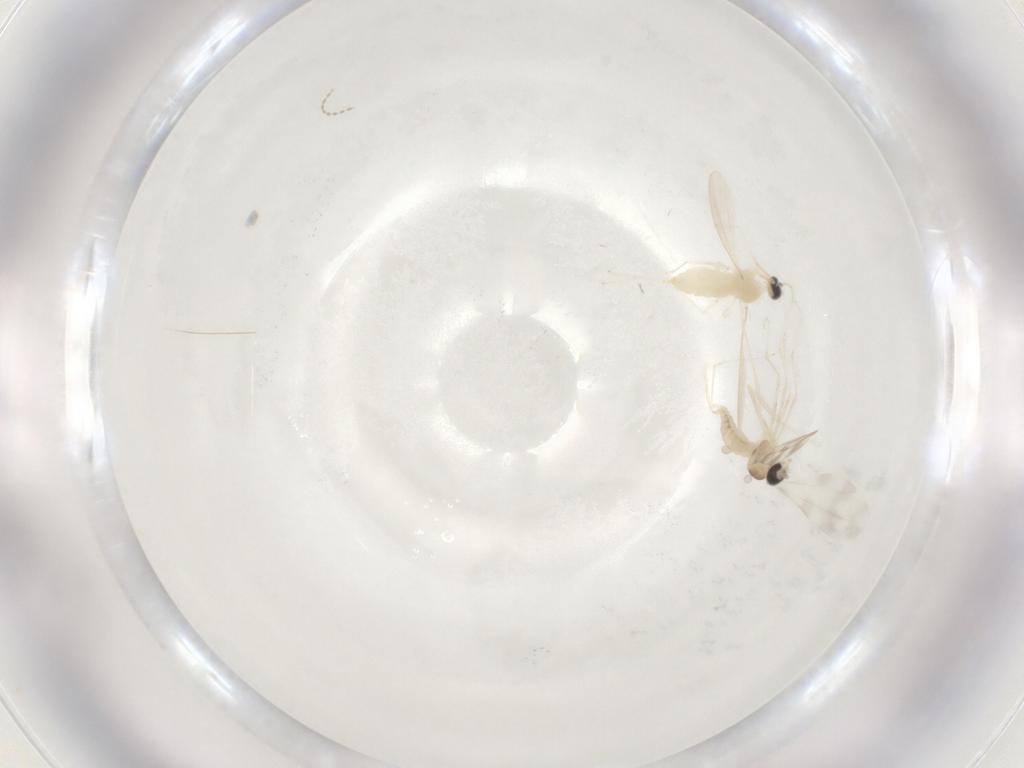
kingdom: Animalia
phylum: Arthropoda
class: Insecta
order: Diptera
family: Cecidomyiidae
